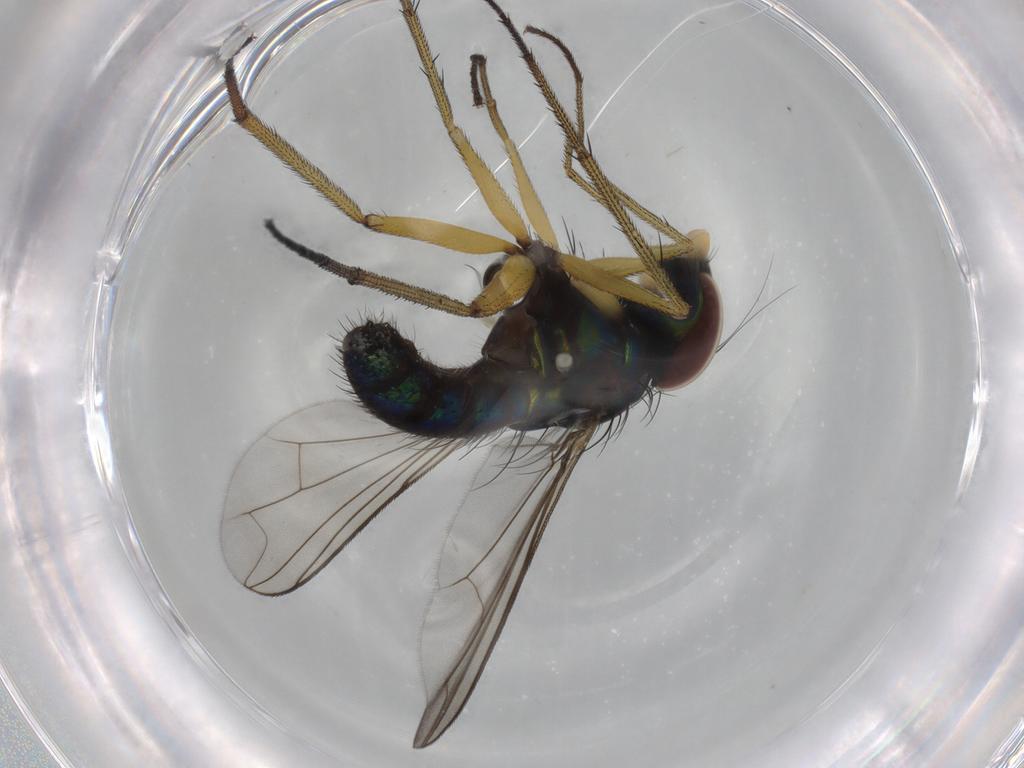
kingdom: Animalia
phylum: Arthropoda
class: Insecta
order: Diptera
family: Dolichopodidae
